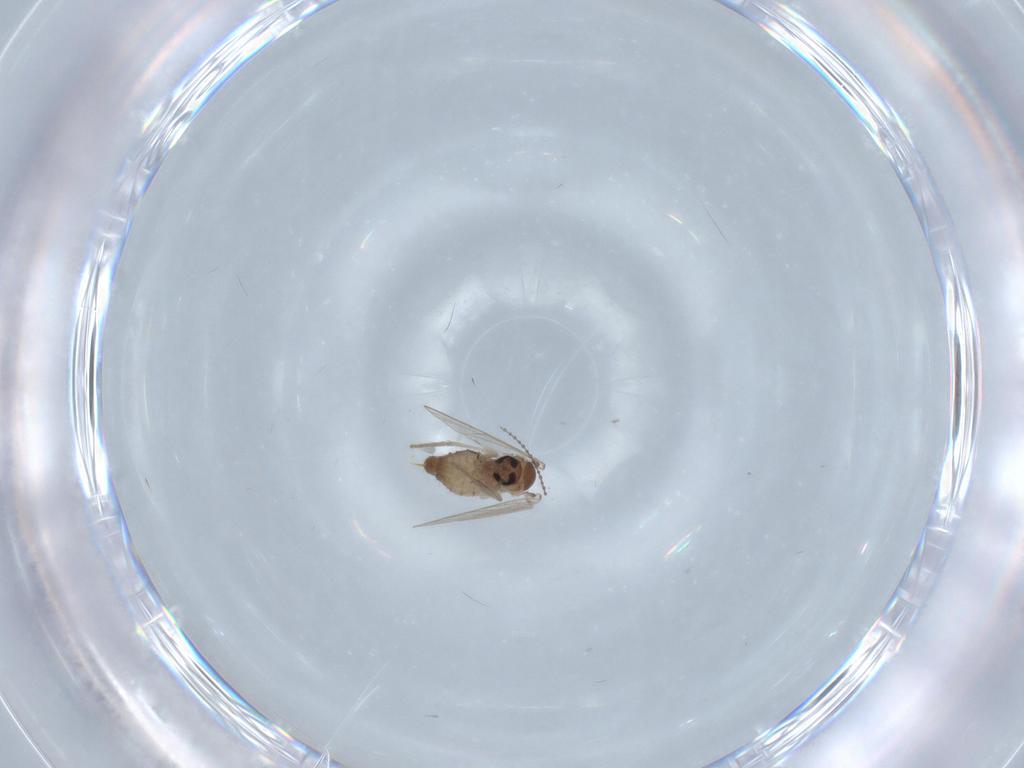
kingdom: Animalia
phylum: Arthropoda
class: Insecta
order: Diptera
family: Psychodidae
